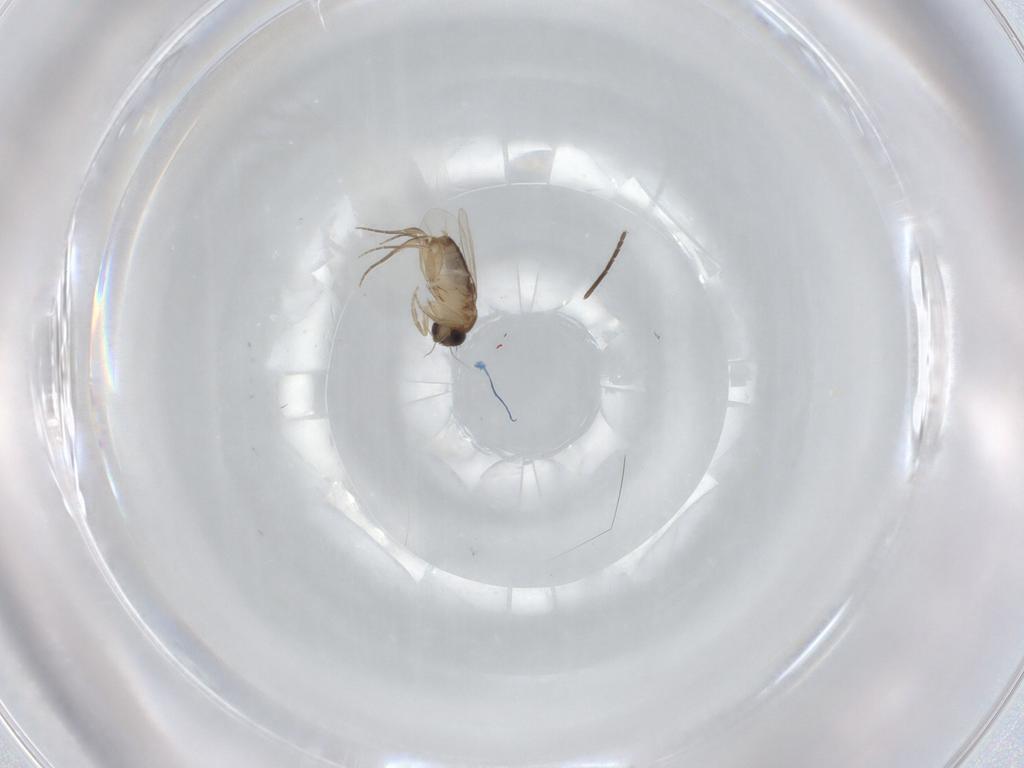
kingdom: Animalia
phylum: Arthropoda
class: Insecta
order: Diptera
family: Phoridae
